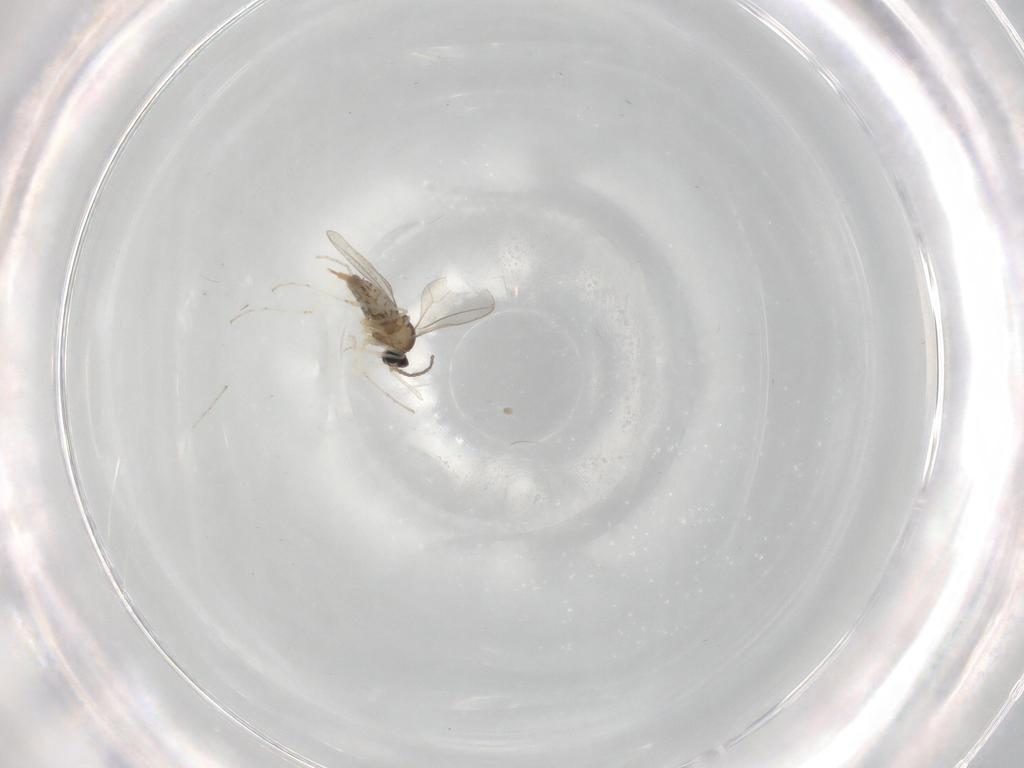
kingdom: Animalia
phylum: Arthropoda
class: Insecta
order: Diptera
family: Cecidomyiidae
